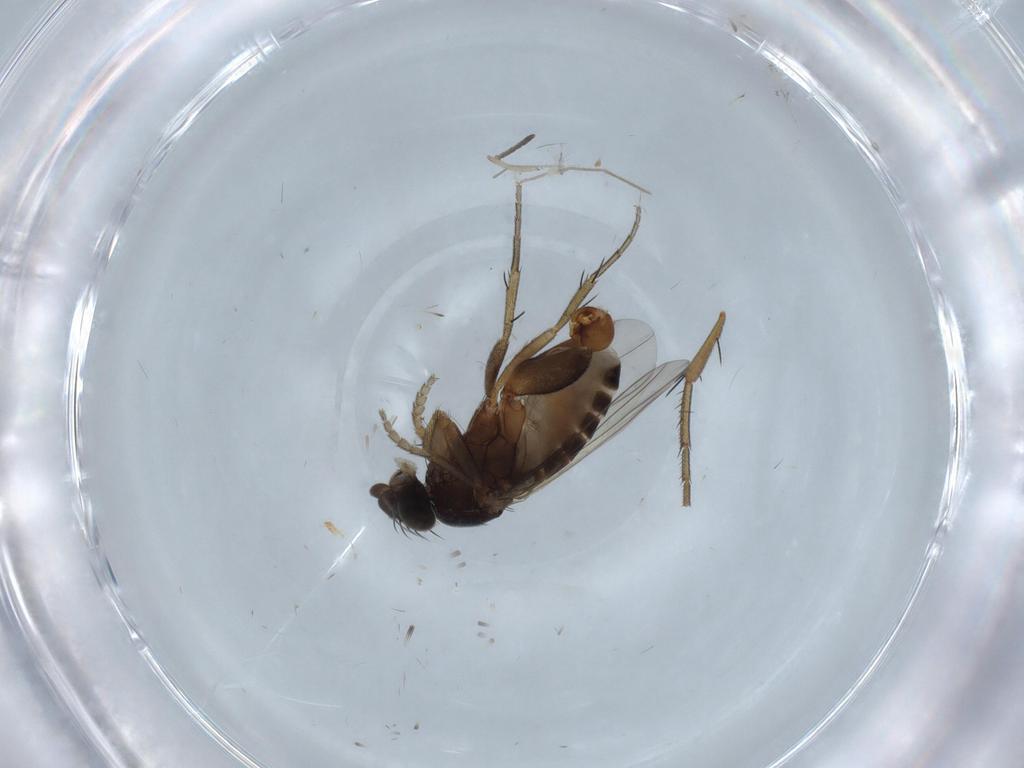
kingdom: Animalia
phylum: Arthropoda
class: Insecta
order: Diptera
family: Phoridae
